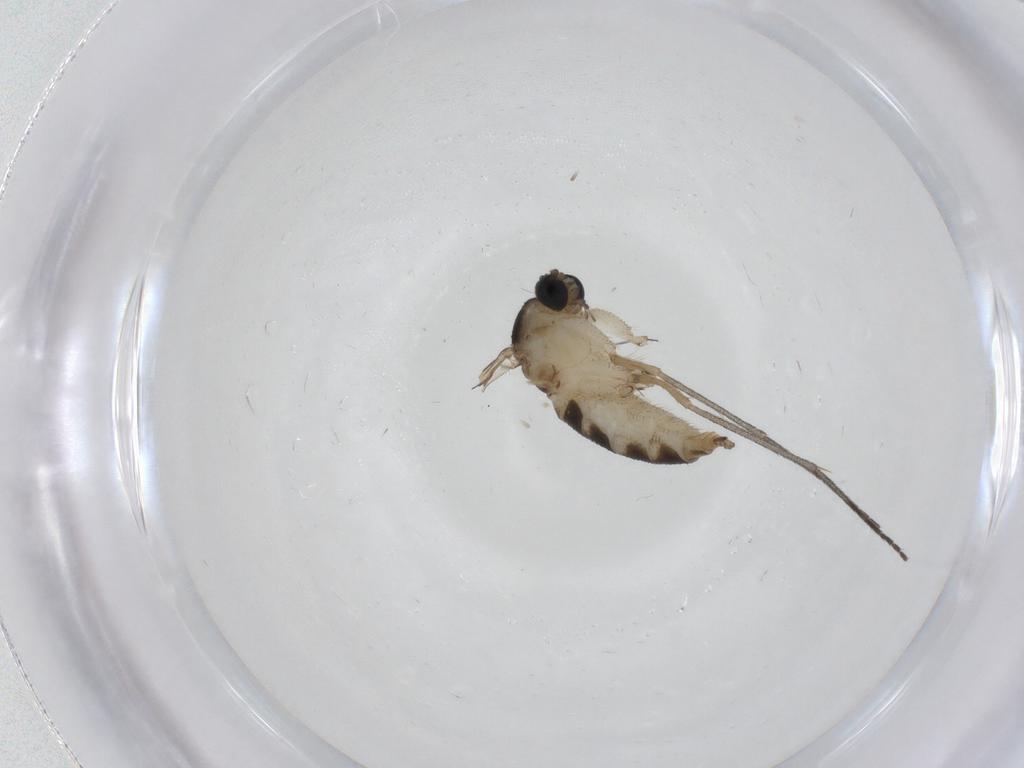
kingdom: Animalia
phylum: Arthropoda
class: Insecta
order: Diptera
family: Sciaridae
